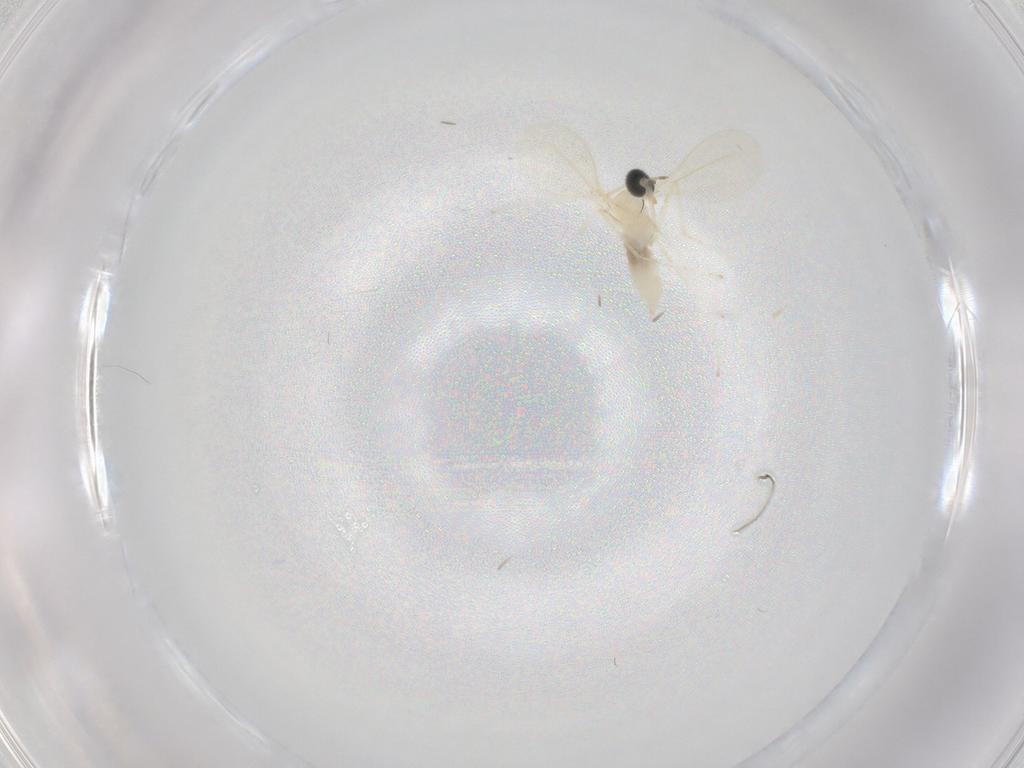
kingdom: Animalia
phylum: Arthropoda
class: Insecta
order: Diptera
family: Cecidomyiidae
